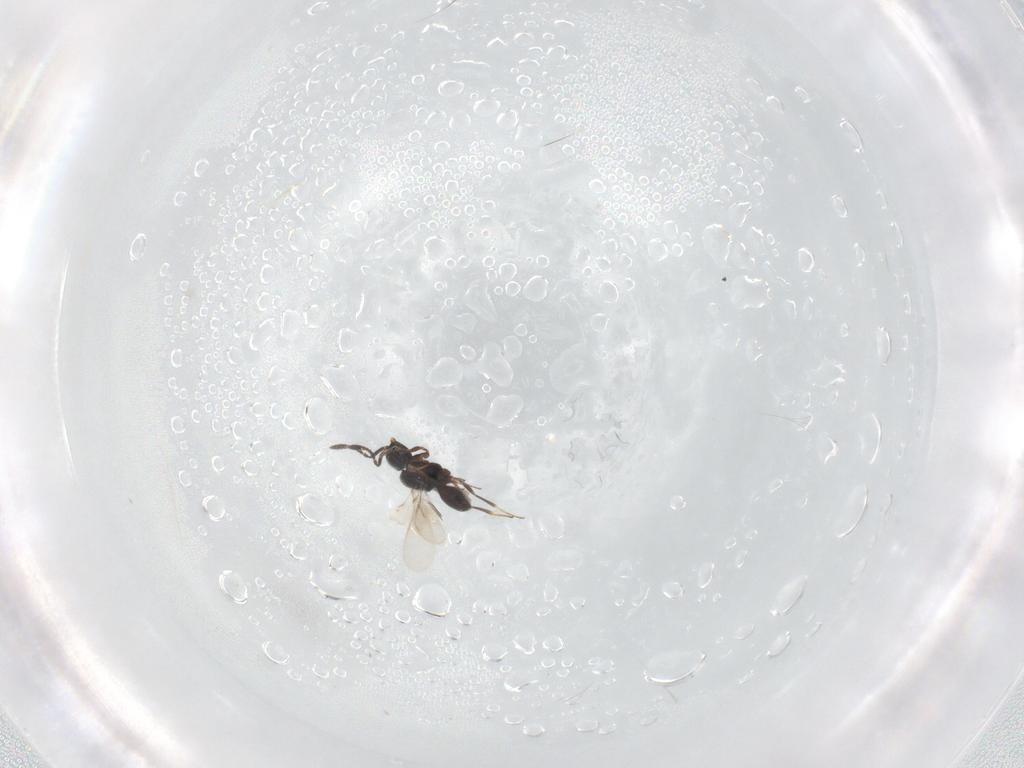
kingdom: Animalia
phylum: Arthropoda
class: Insecta
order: Hymenoptera
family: Scelionidae
